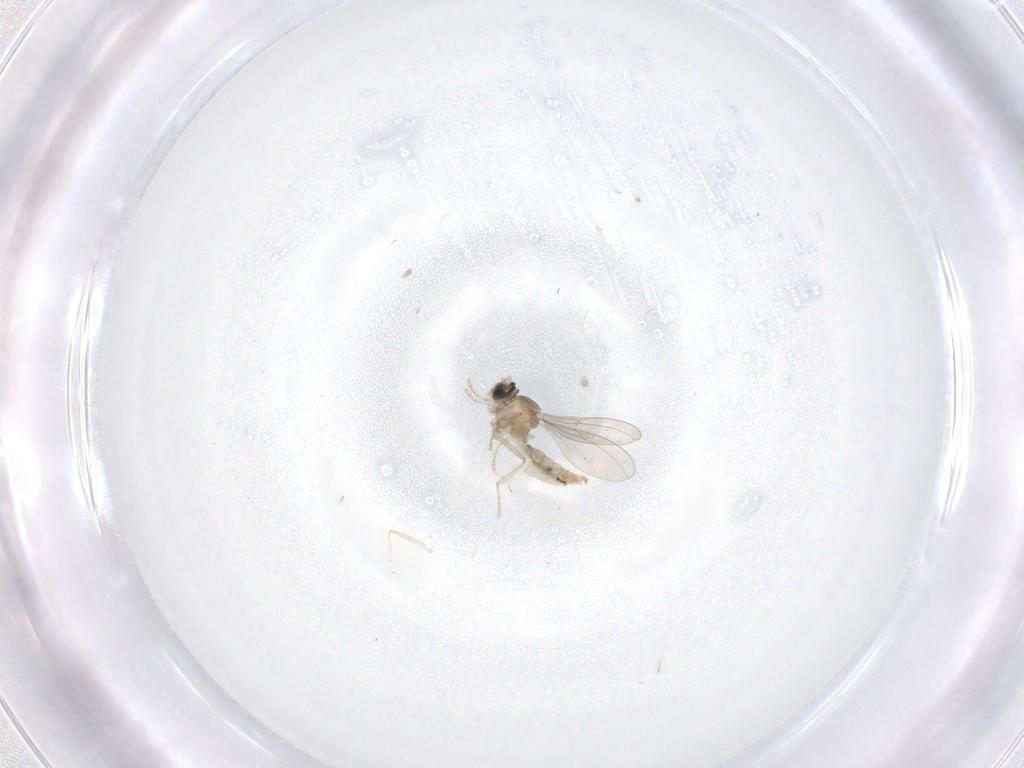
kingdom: Animalia
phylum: Arthropoda
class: Insecta
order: Diptera
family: Cecidomyiidae
